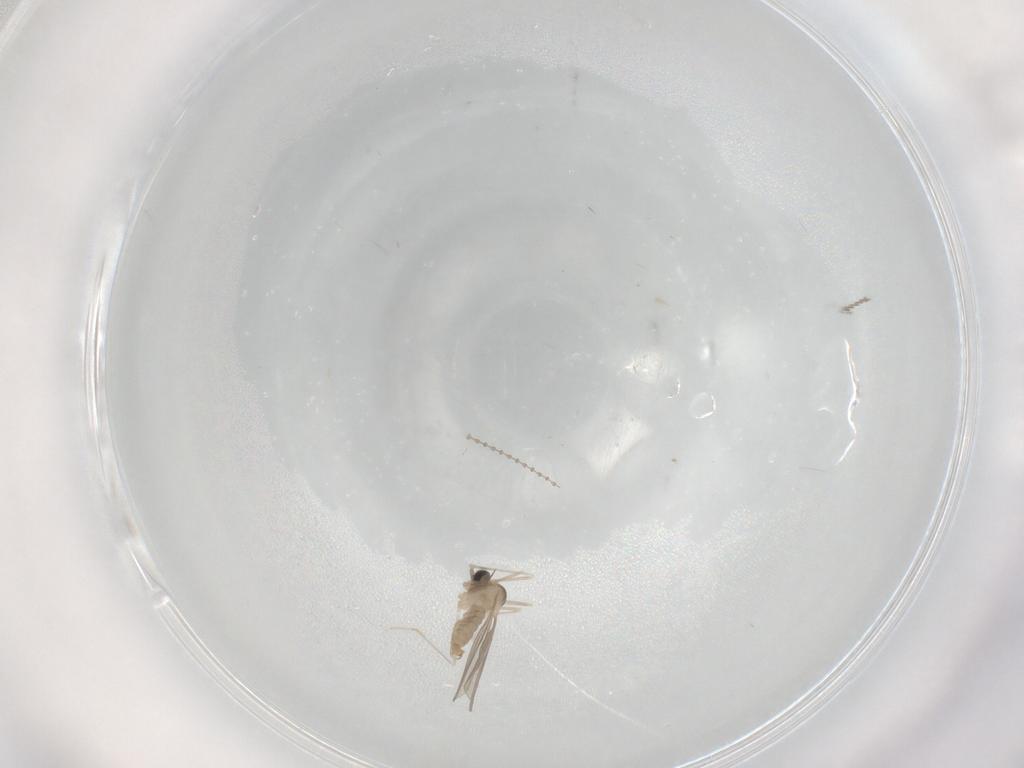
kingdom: Animalia
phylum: Arthropoda
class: Insecta
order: Diptera
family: Cecidomyiidae
